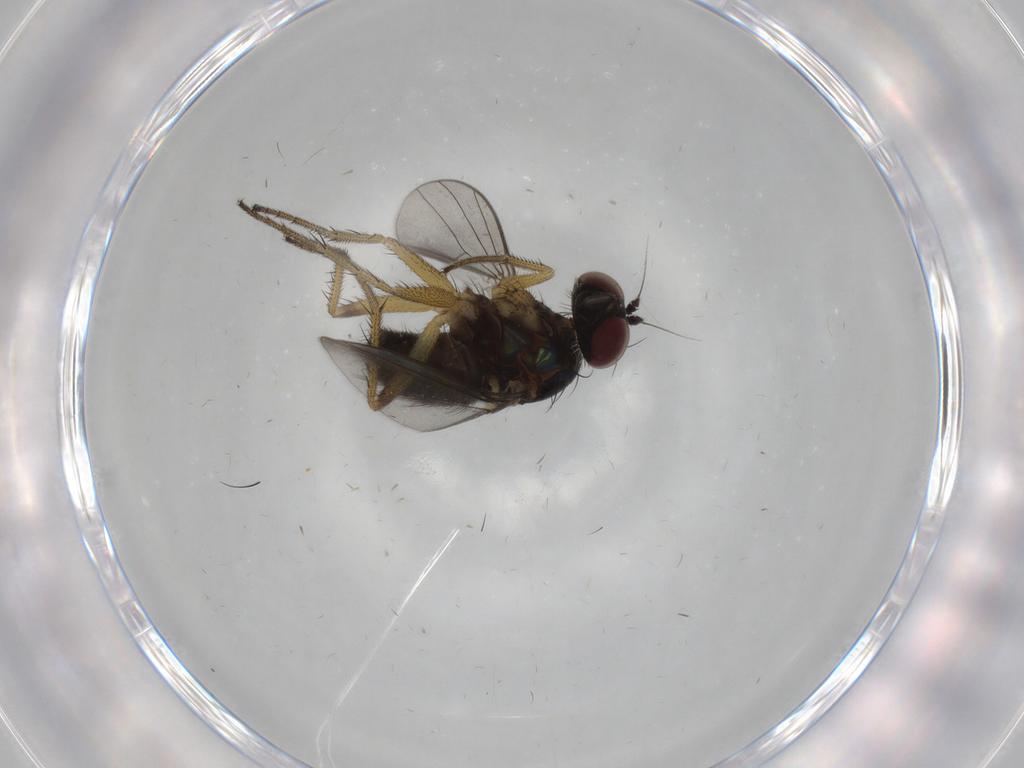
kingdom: Animalia
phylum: Arthropoda
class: Insecta
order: Diptera
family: Dolichopodidae
